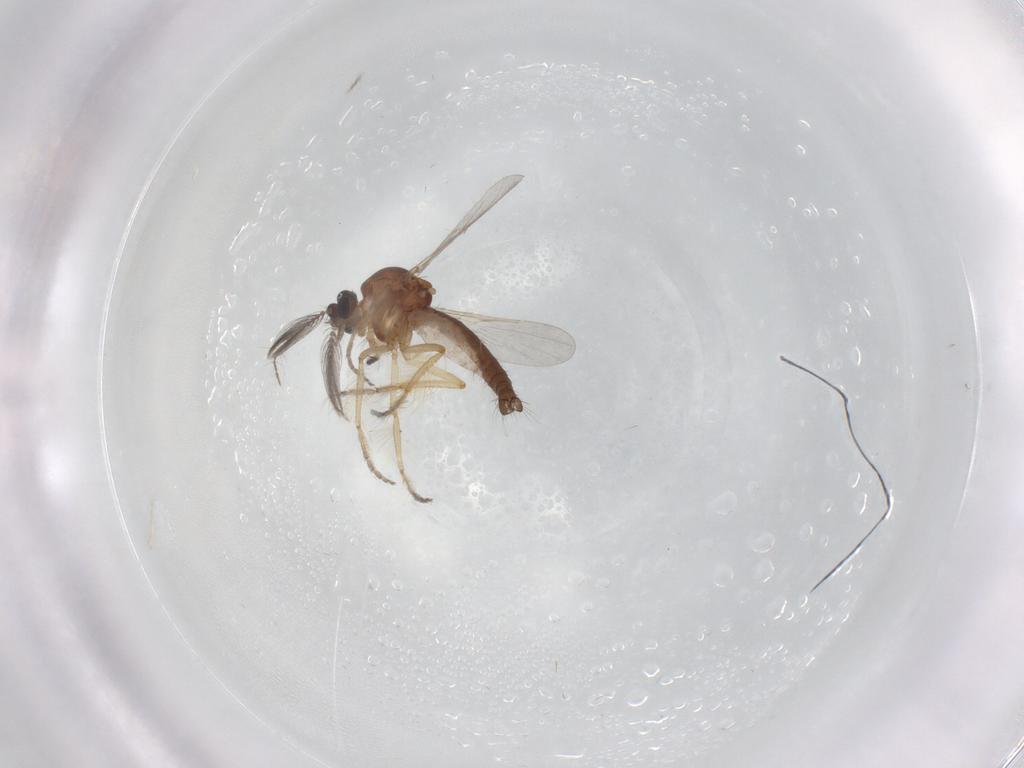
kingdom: Animalia
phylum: Arthropoda
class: Insecta
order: Diptera
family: Ceratopogonidae
